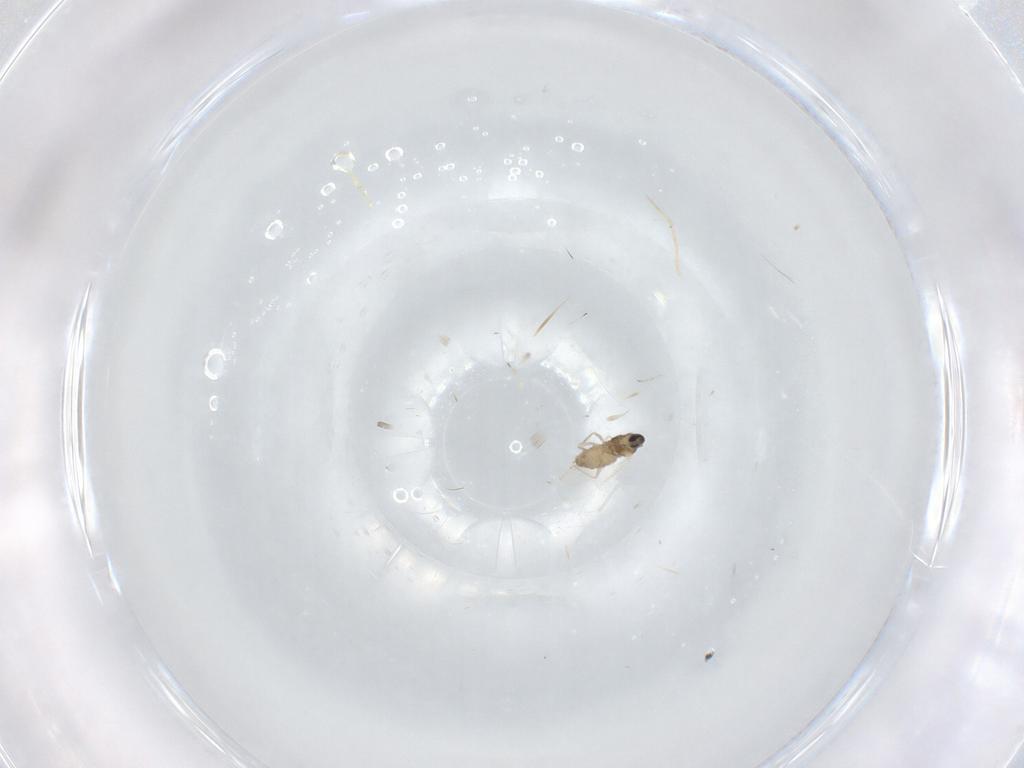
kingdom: Animalia
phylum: Arthropoda
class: Insecta
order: Diptera
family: Cecidomyiidae
